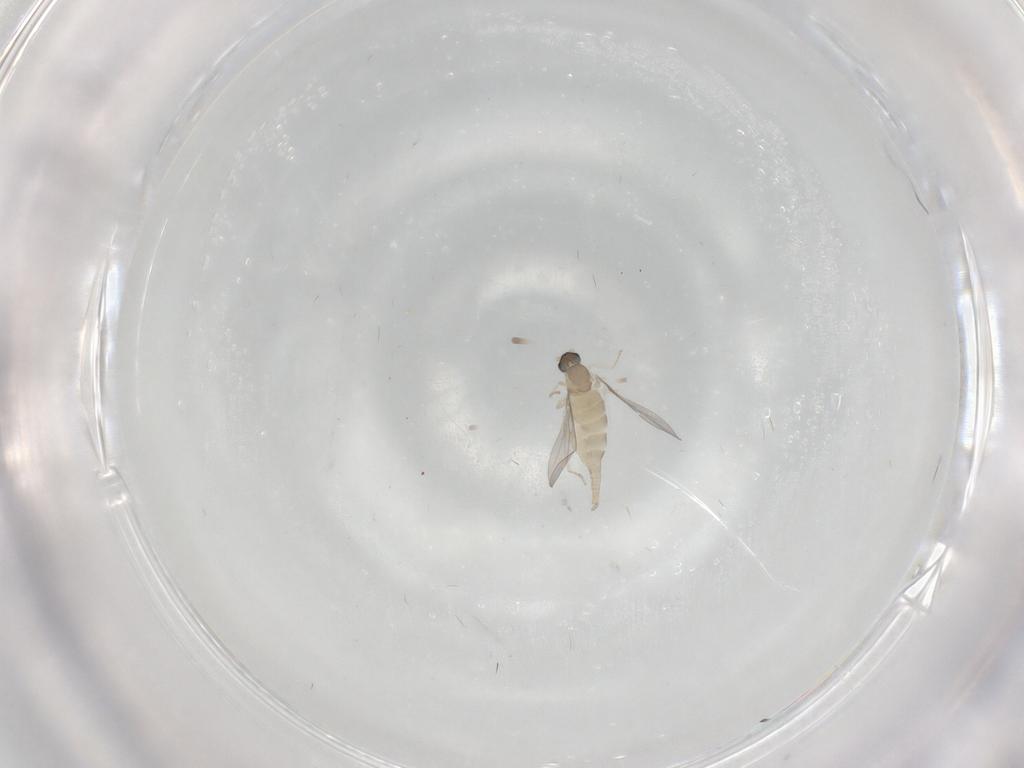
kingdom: Animalia
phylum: Arthropoda
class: Insecta
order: Diptera
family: Cecidomyiidae
